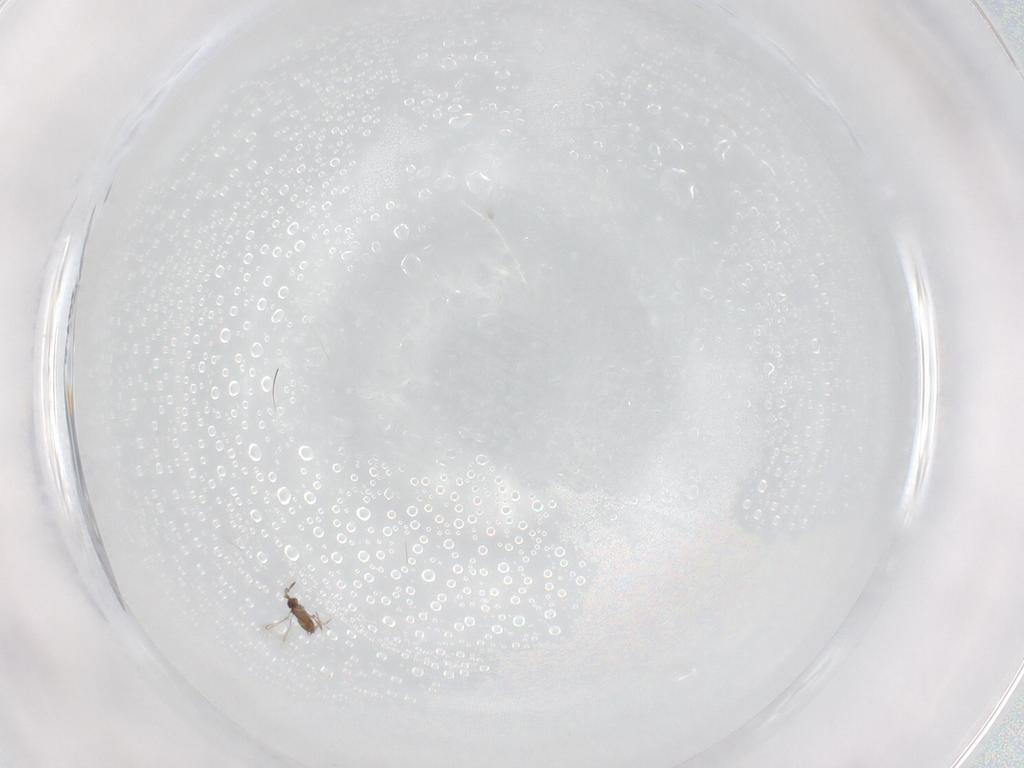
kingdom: Animalia
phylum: Arthropoda
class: Insecta
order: Hymenoptera
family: Mymaridae
